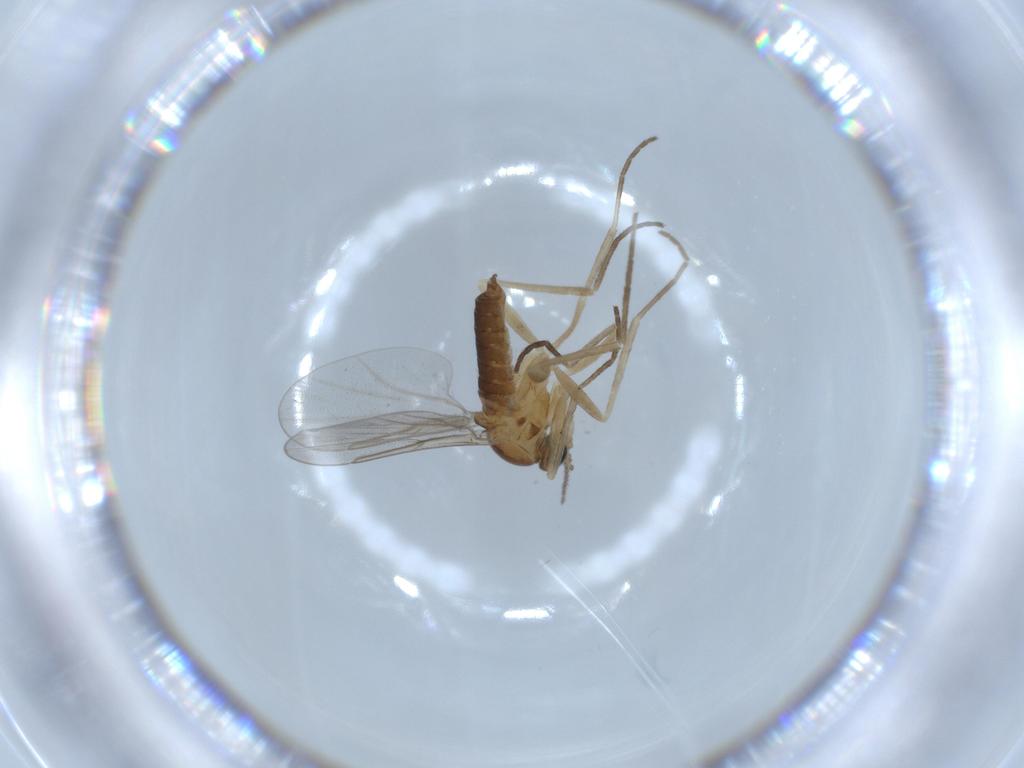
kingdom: Animalia
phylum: Arthropoda
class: Insecta
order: Diptera
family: Cecidomyiidae
